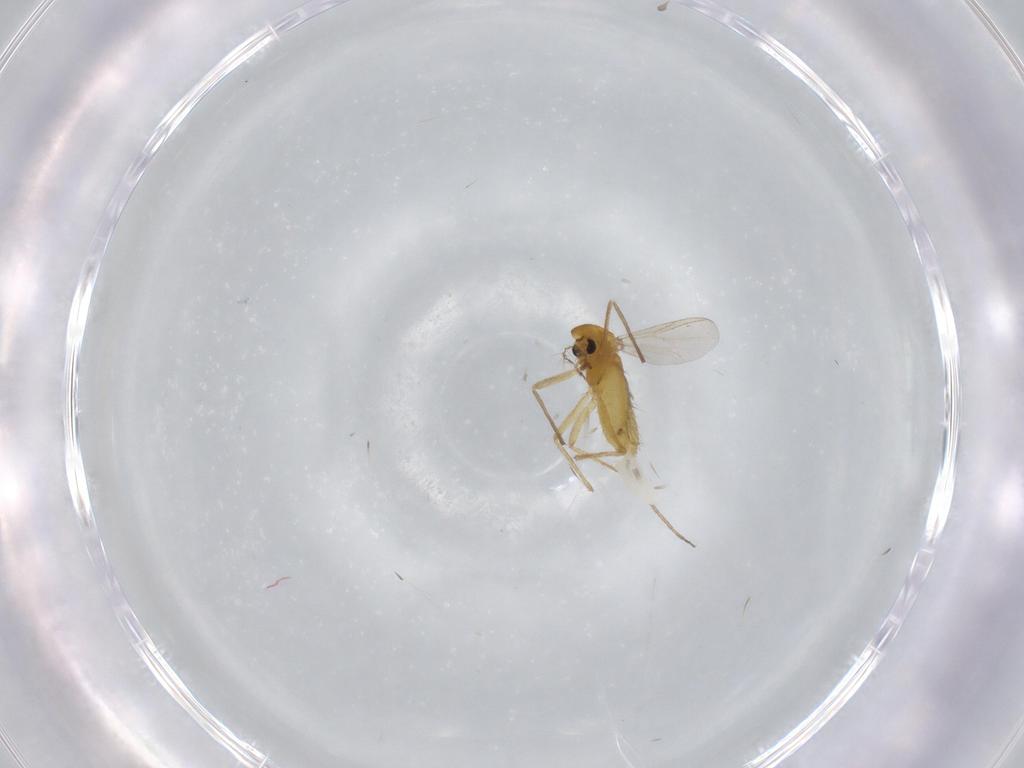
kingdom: Animalia
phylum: Arthropoda
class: Insecta
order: Diptera
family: Chironomidae
